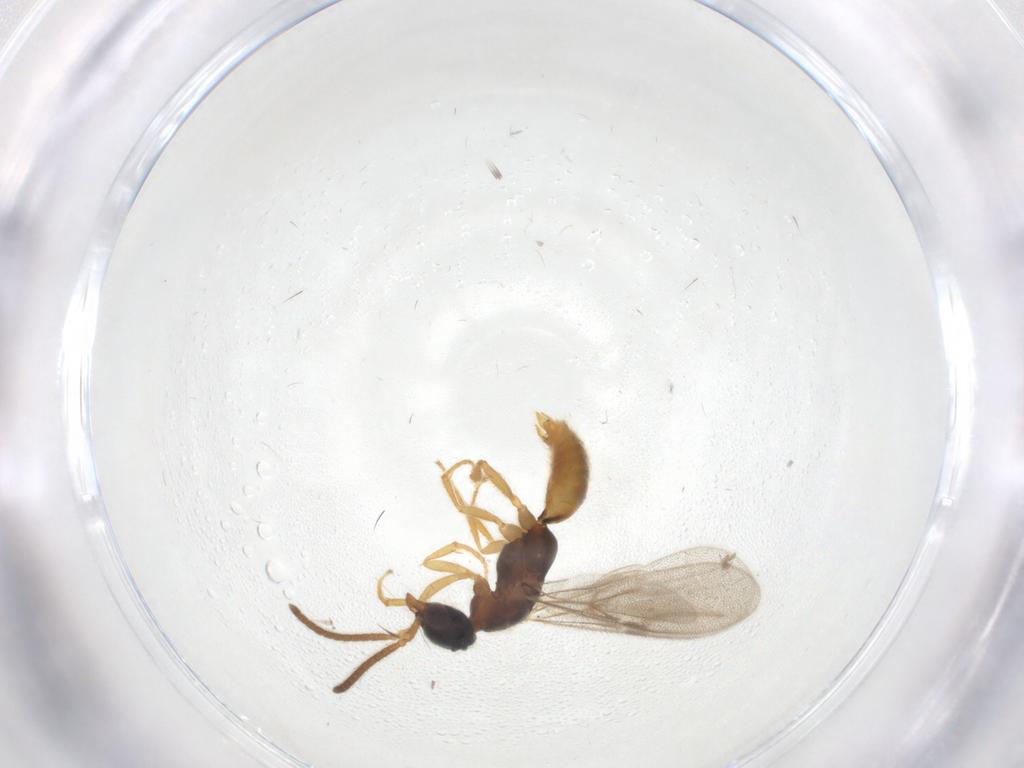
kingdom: Animalia
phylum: Arthropoda
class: Insecta
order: Hymenoptera
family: Bethylidae
